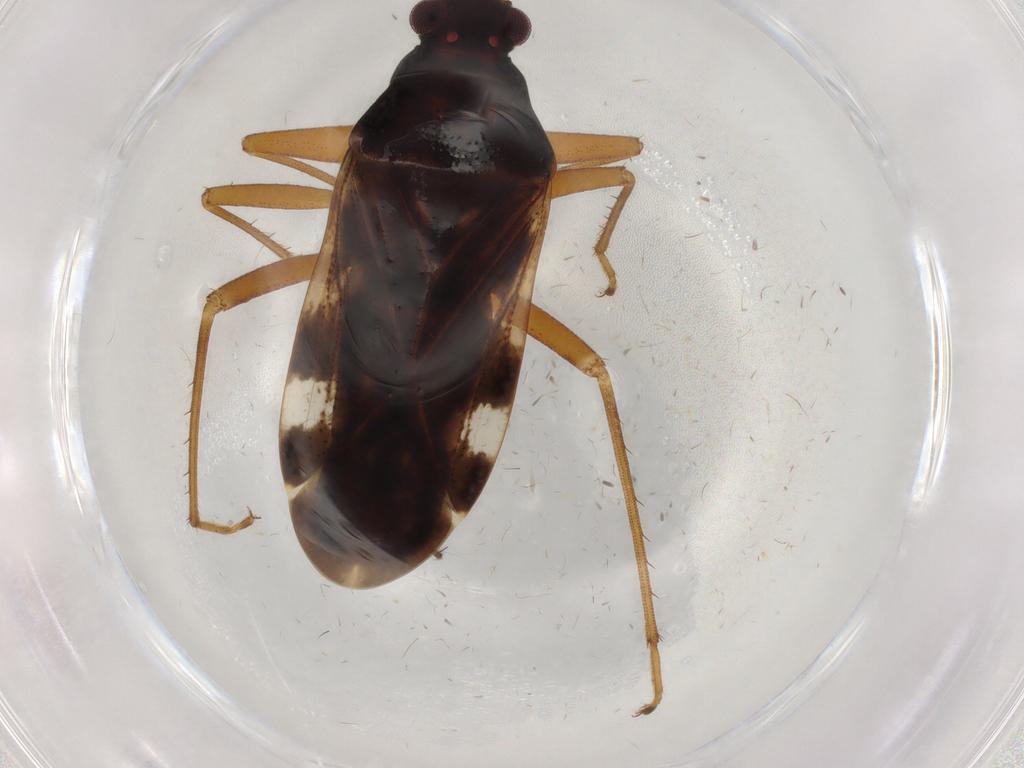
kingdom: Animalia
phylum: Arthropoda
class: Insecta
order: Hemiptera
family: Rhyparochromidae
